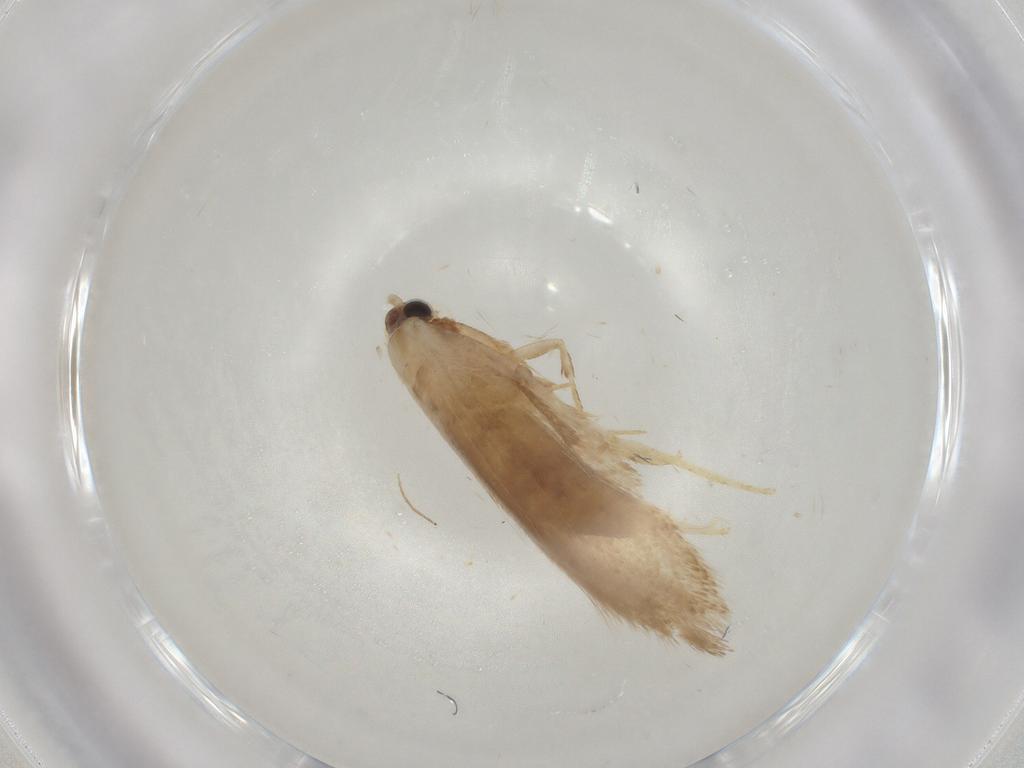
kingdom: Animalia
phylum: Arthropoda
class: Insecta
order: Lepidoptera
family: Nepticulidae
